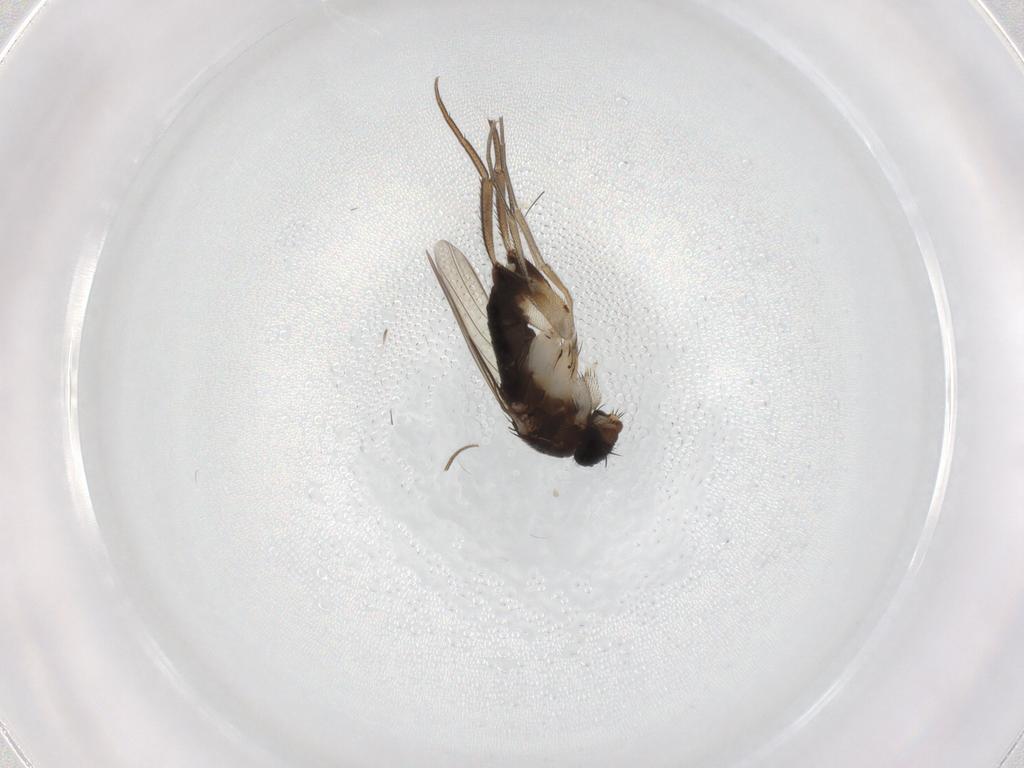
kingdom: Animalia
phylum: Arthropoda
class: Insecta
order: Diptera
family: Phoridae
